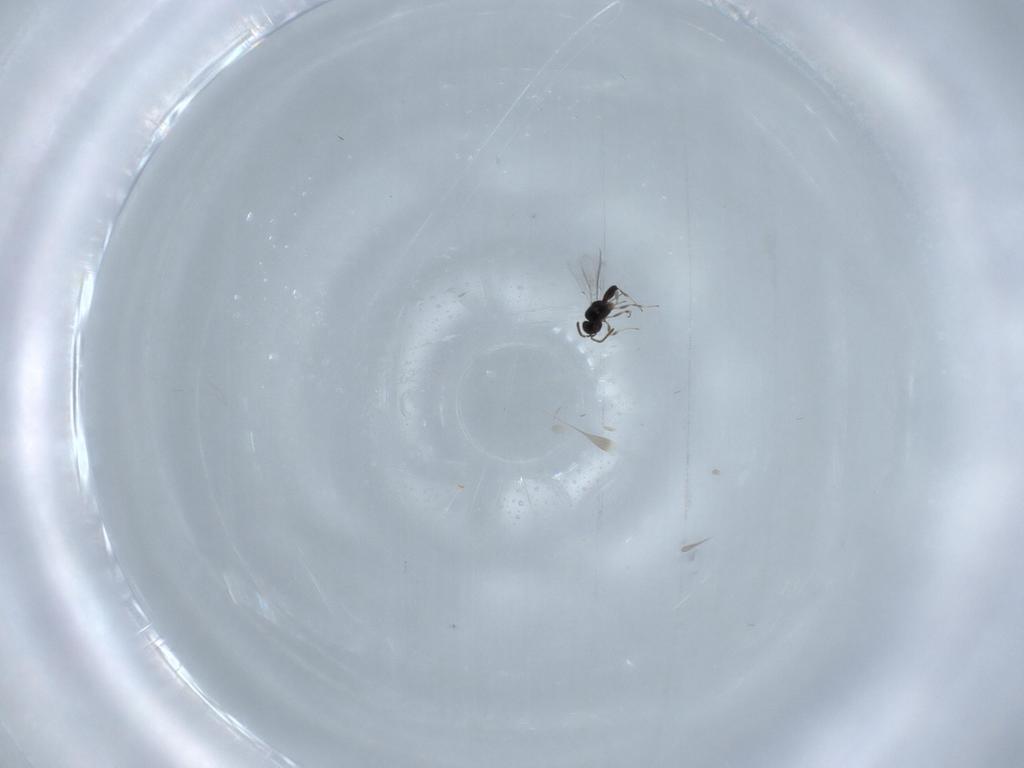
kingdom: Animalia
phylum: Arthropoda
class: Insecta
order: Hymenoptera
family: Scelionidae
